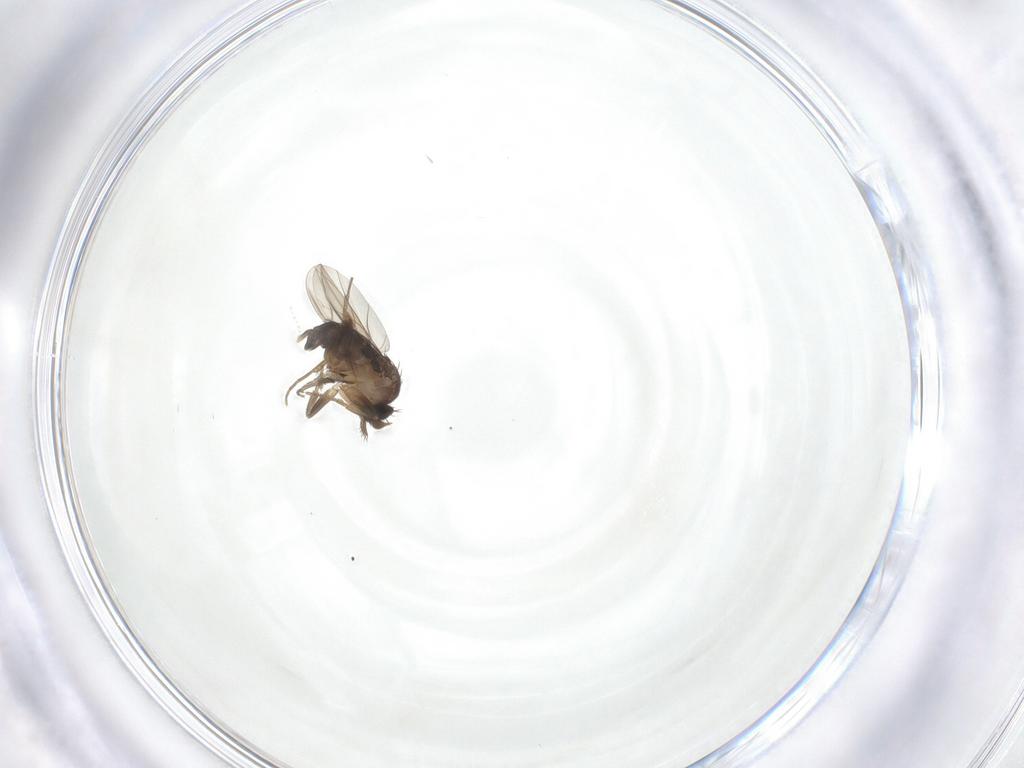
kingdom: Animalia
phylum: Arthropoda
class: Insecta
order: Diptera
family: Cecidomyiidae
